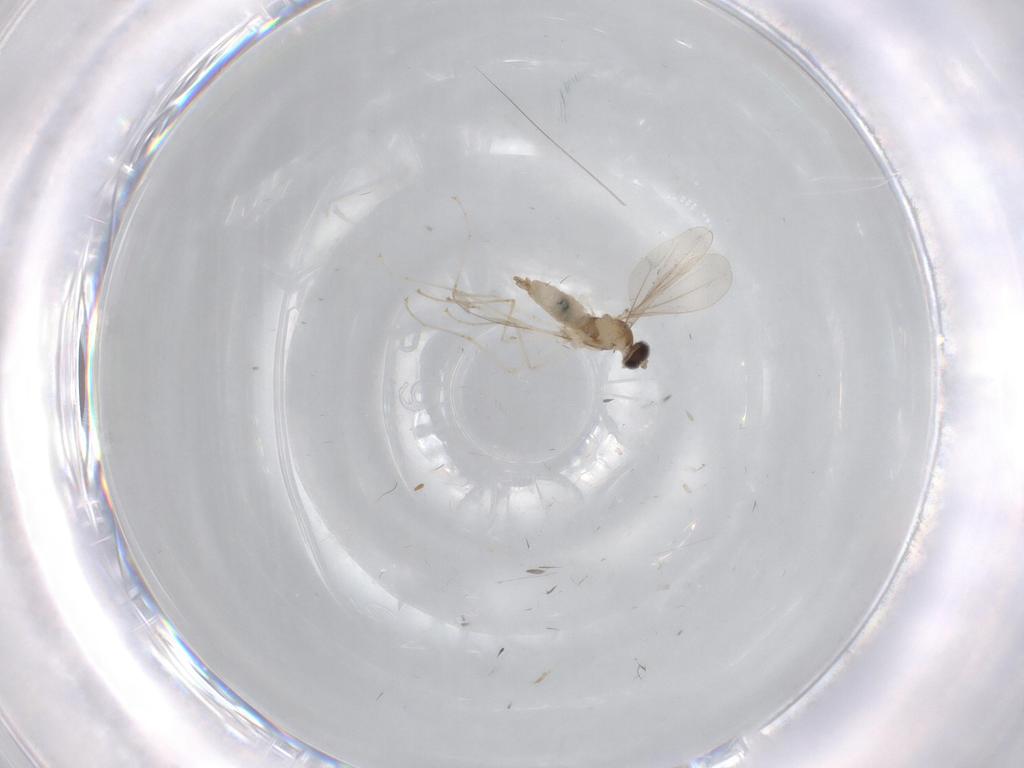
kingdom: Animalia
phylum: Arthropoda
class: Insecta
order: Diptera
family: Cecidomyiidae
